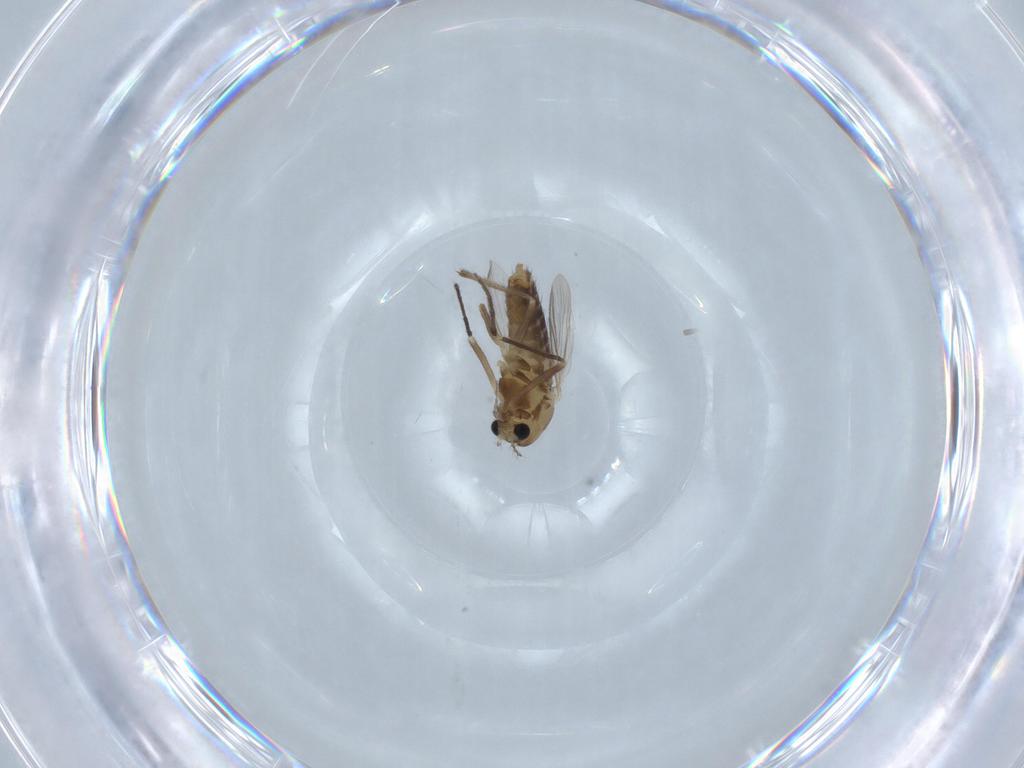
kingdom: Animalia
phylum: Arthropoda
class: Insecta
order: Diptera
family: Chironomidae
